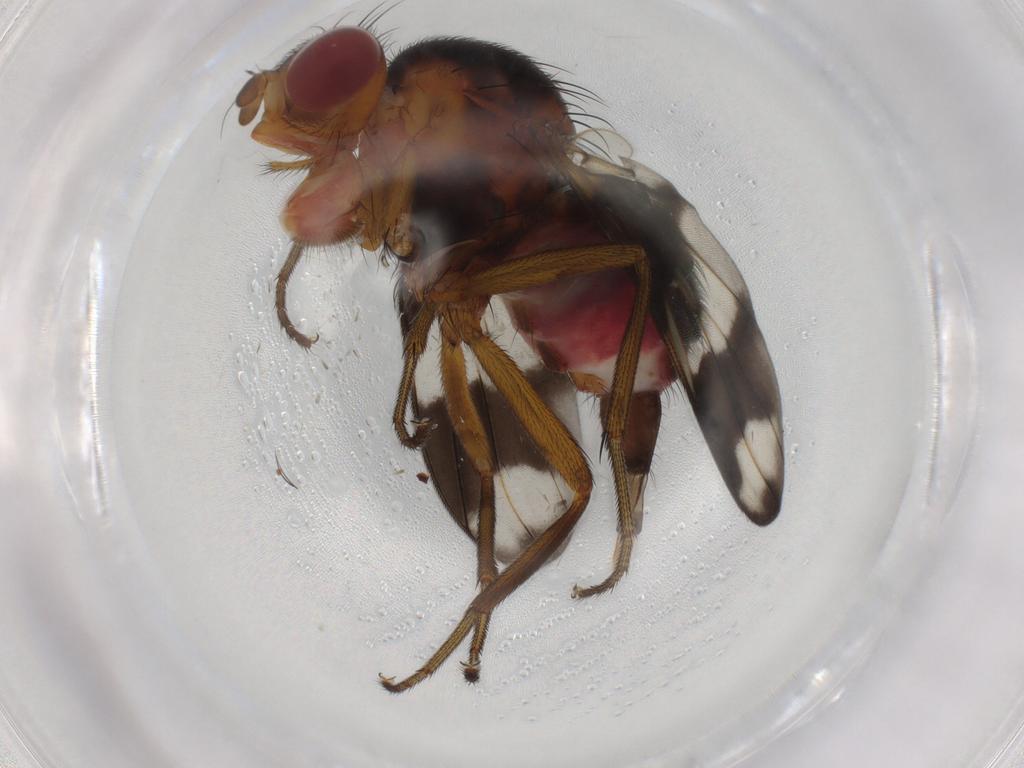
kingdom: Animalia
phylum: Arthropoda
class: Insecta
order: Diptera
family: Richardiidae
